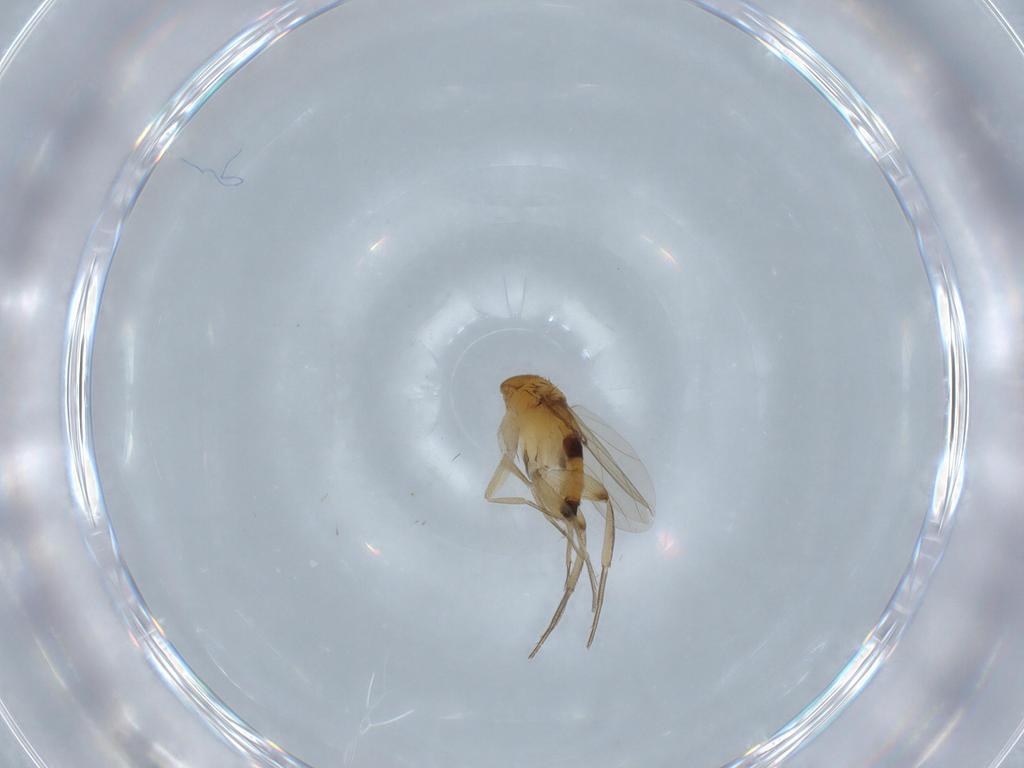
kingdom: Animalia
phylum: Arthropoda
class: Insecta
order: Diptera
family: Phoridae
